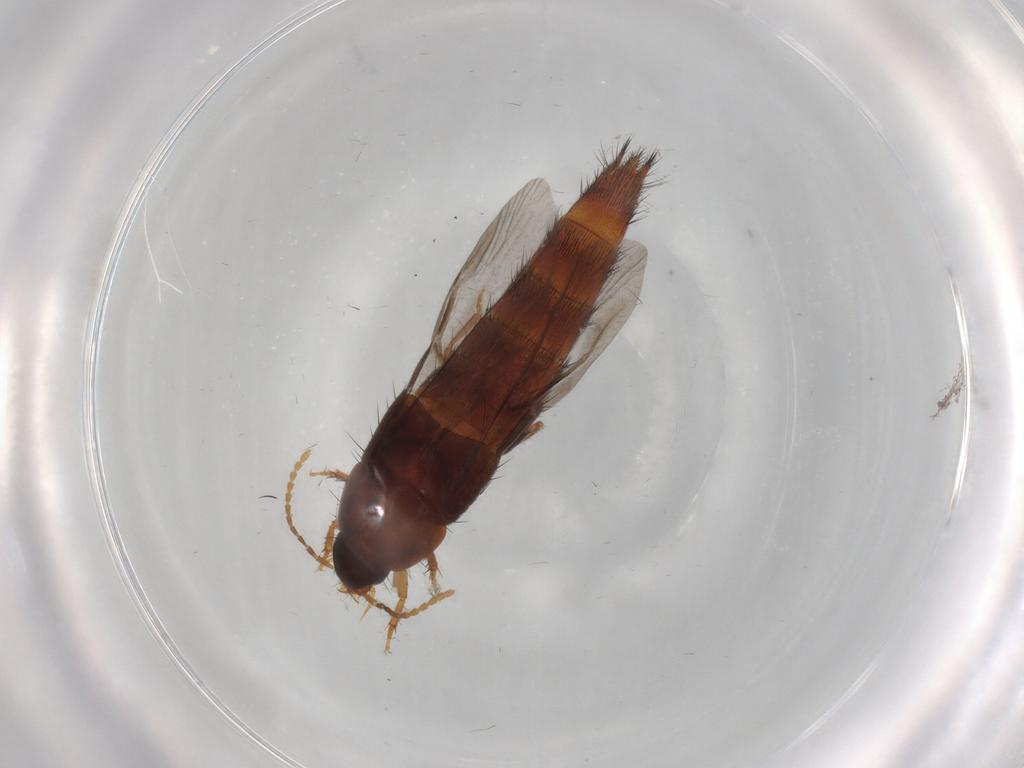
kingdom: Animalia
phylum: Arthropoda
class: Insecta
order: Coleoptera
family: Staphylinidae
